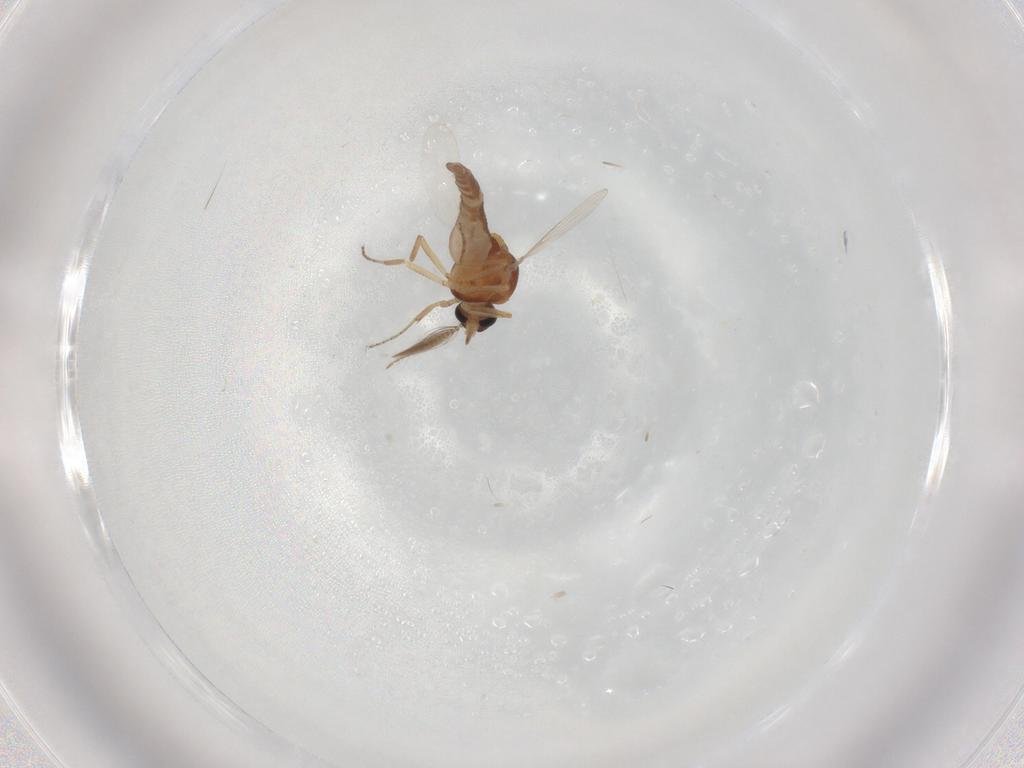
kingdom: Animalia
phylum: Arthropoda
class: Insecta
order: Diptera
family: Ceratopogonidae
